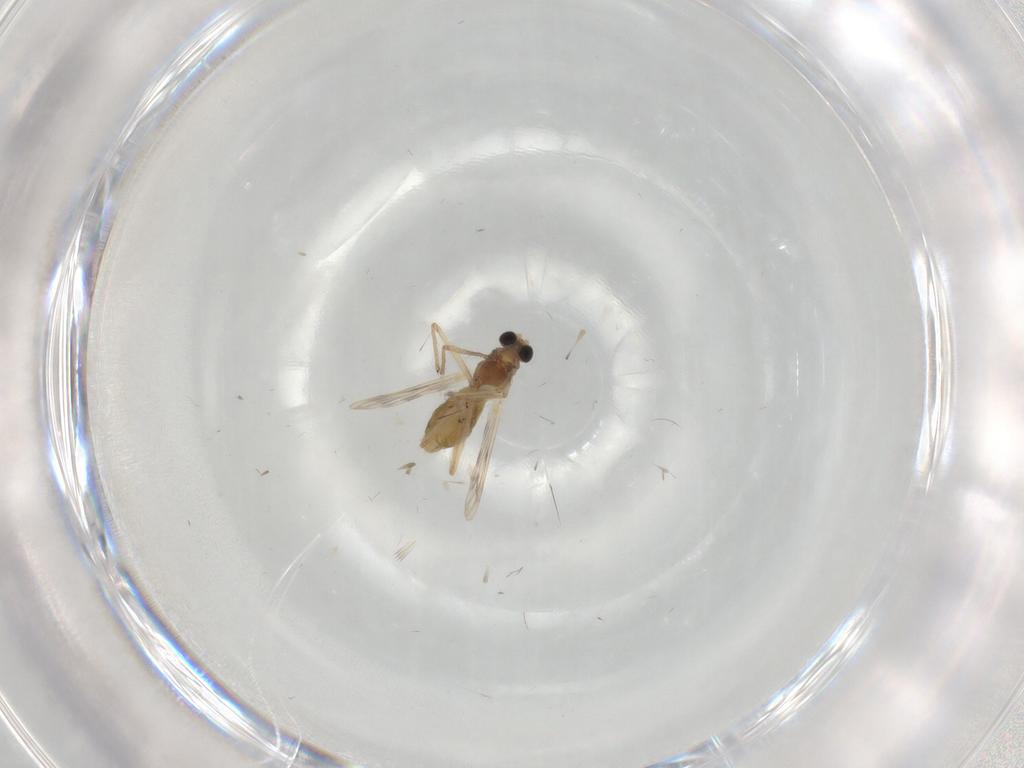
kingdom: Animalia
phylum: Arthropoda
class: Insecta
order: Diptera
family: Chironomidae
